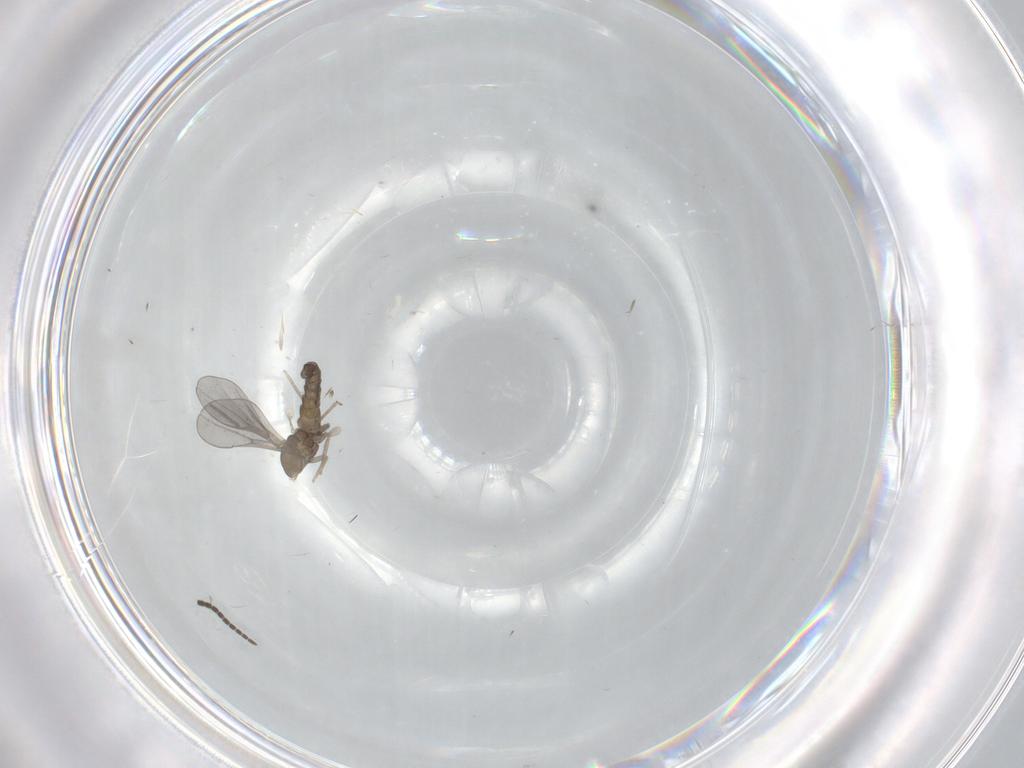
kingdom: Animalia
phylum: Arthropoda
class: Insecta
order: Diptera
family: Cecidomyiidae
